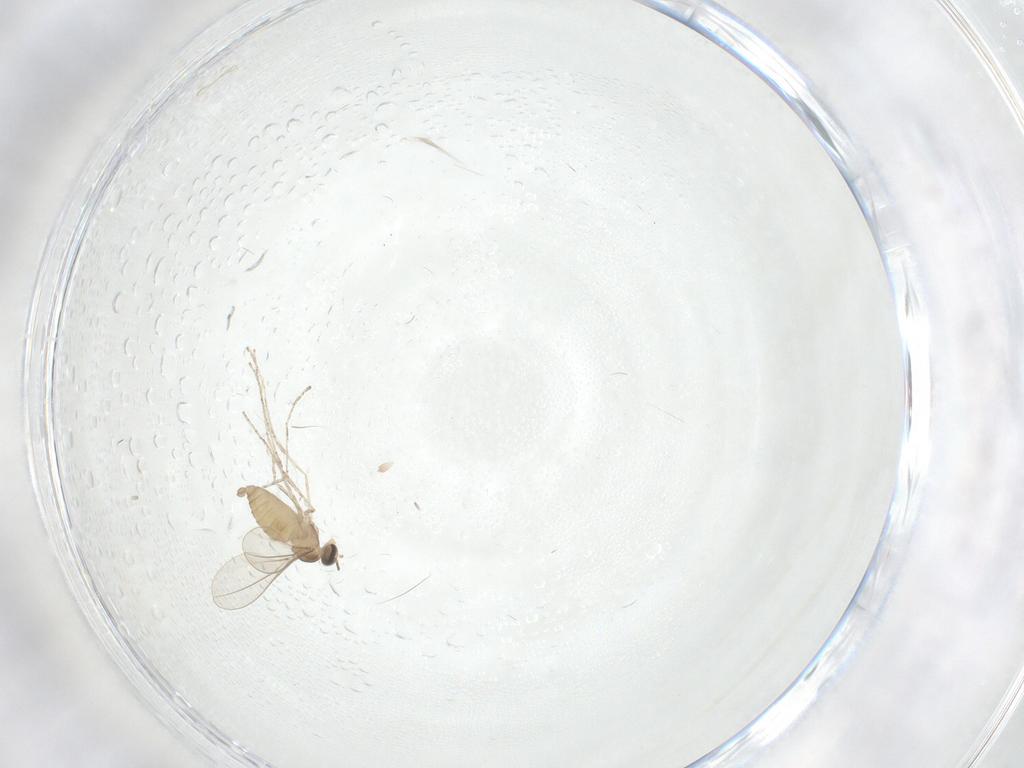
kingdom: Animalia
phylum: Arthropoda
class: Insecta
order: Diptera
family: Cecidomyiidae
